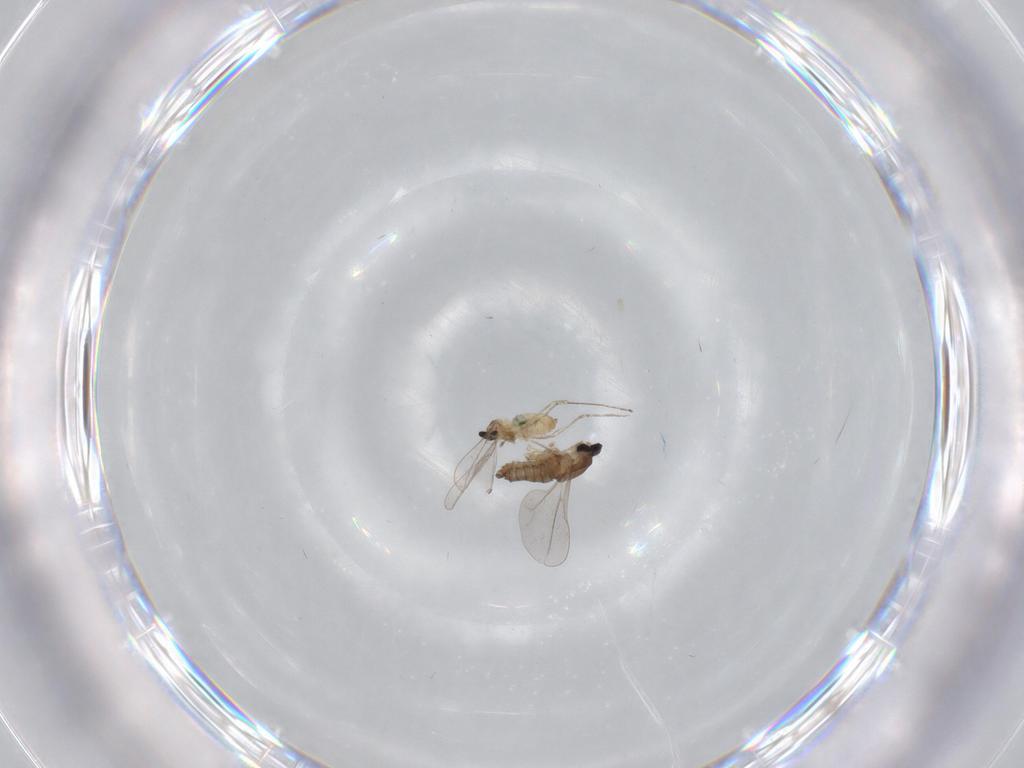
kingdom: Animalia
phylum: Arthropoda
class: Insecta
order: Diptera
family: Cecidomyiidae
